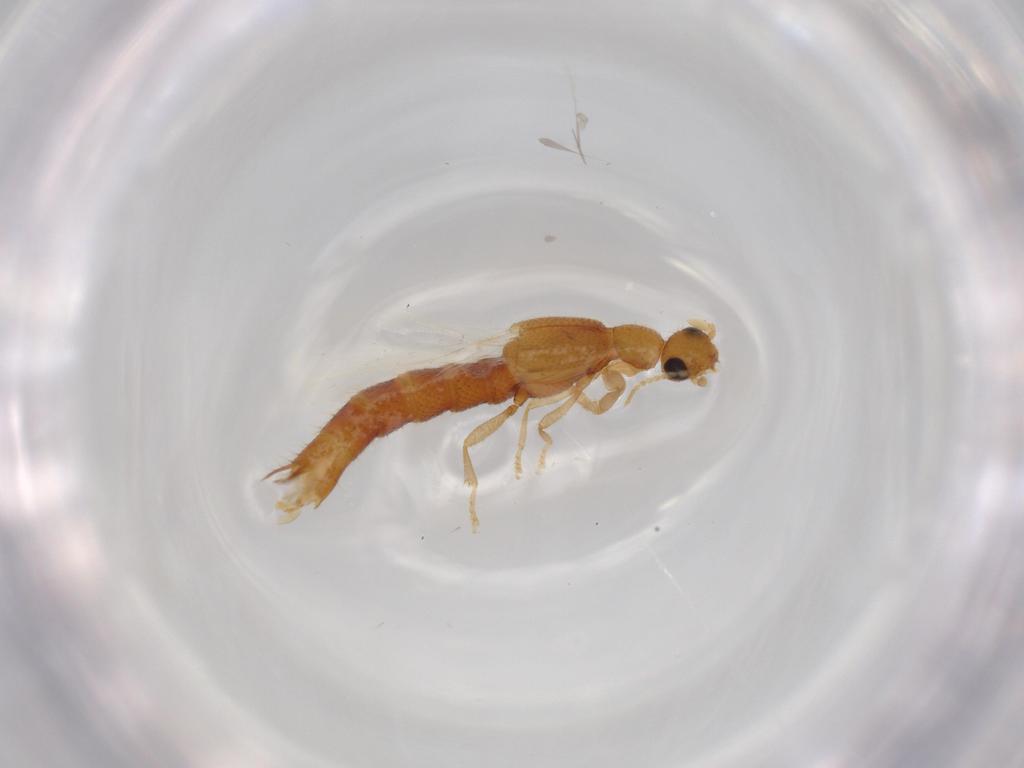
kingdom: Animalia
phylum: Arthropoda
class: Insecta
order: Coleoptera
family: Staphylinidae
